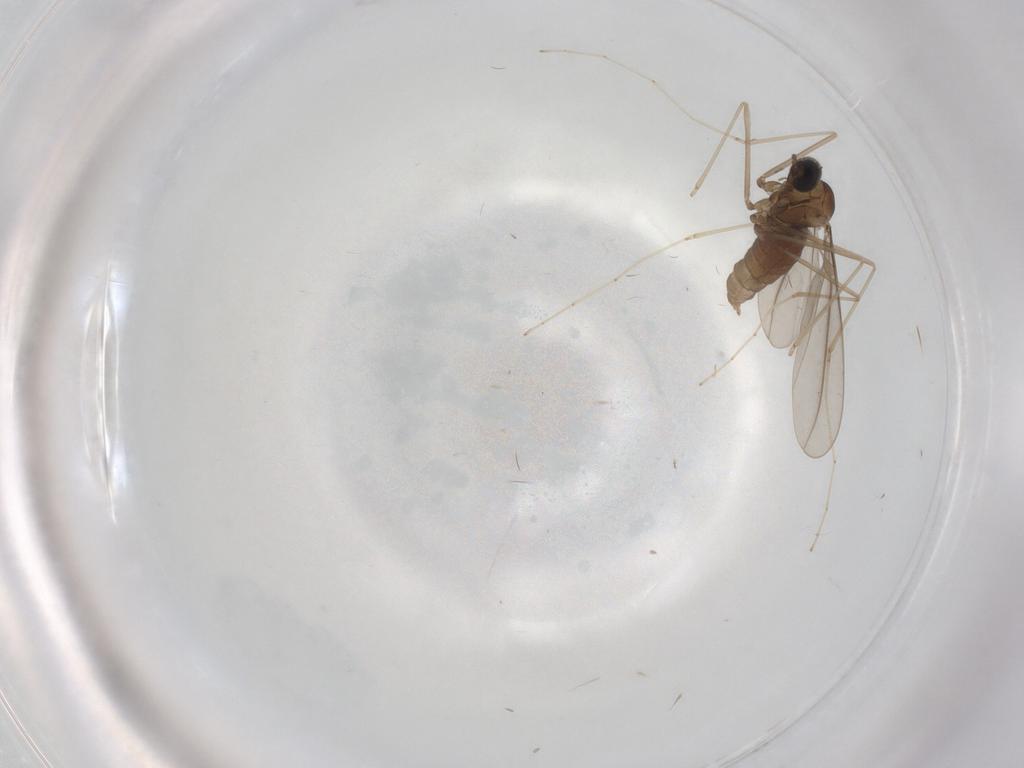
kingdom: Animalia
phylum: Arthropoda
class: Insecta
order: Diptera
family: Cecidomyiidae
